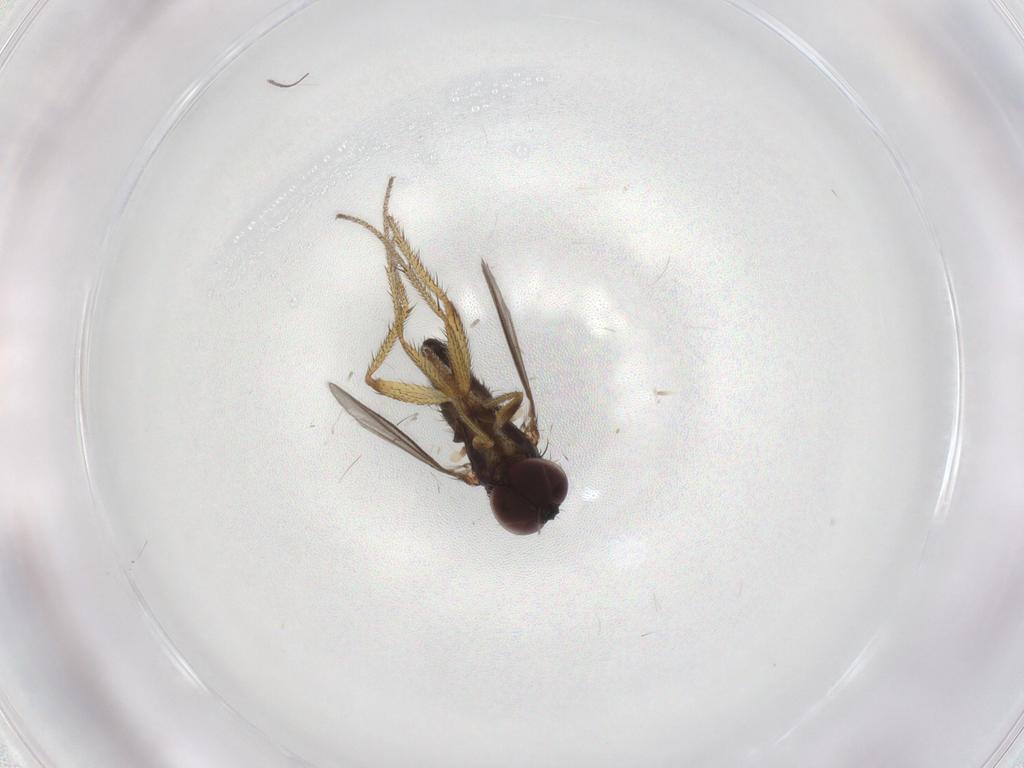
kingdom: Animalia
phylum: Arthropoda
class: Insecta
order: Diptera
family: Dolichopodidae
